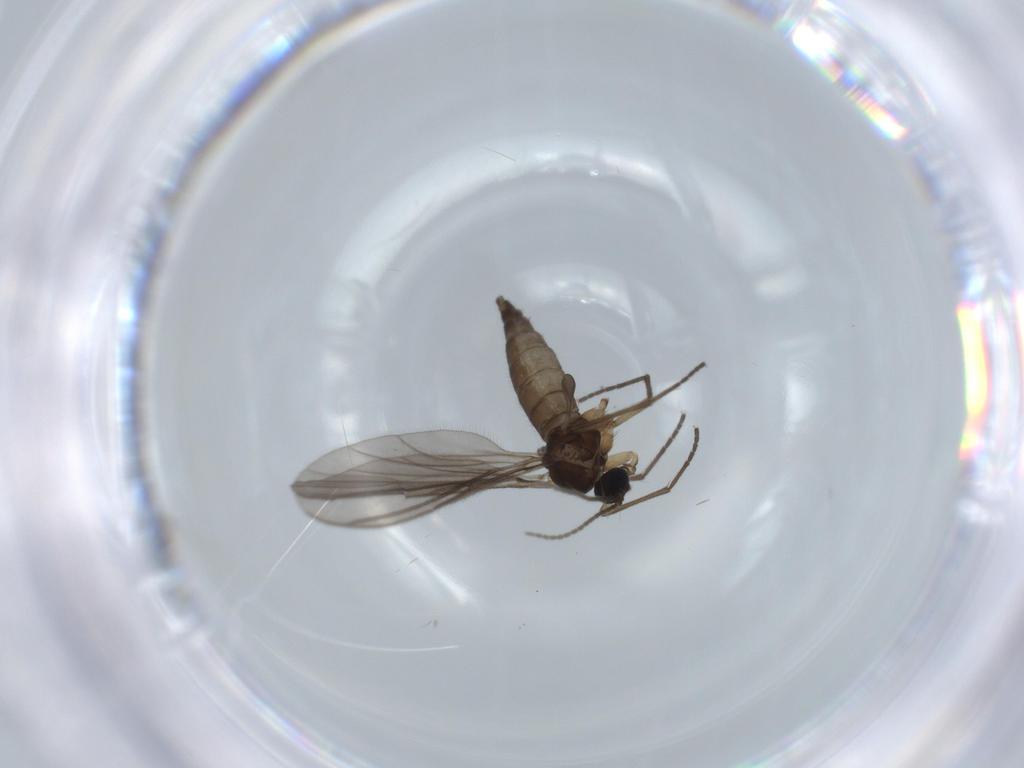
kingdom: Animalia
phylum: Arthropoda
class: Insecta
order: Diptera
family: Sciaridae
